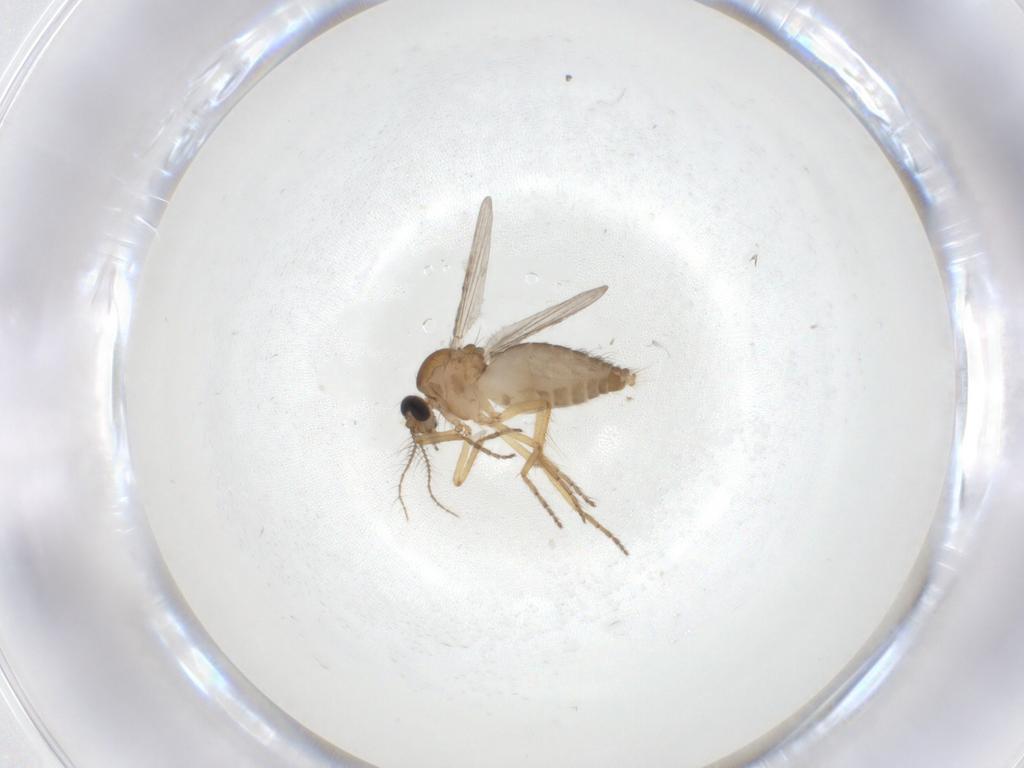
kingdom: Animalia
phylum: Arthropoda
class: Insecta
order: Diptera
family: Ceratopogonidae
